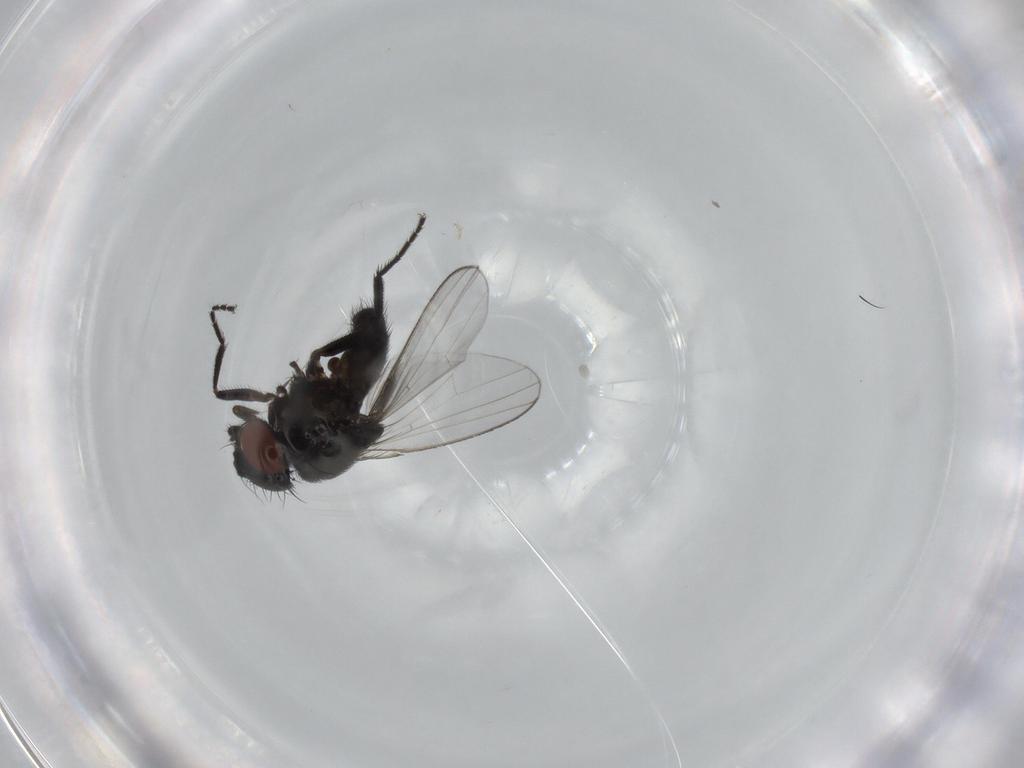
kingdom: Animalia
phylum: Arthropoda
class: Insecta
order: Diptera
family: Milichiidae
